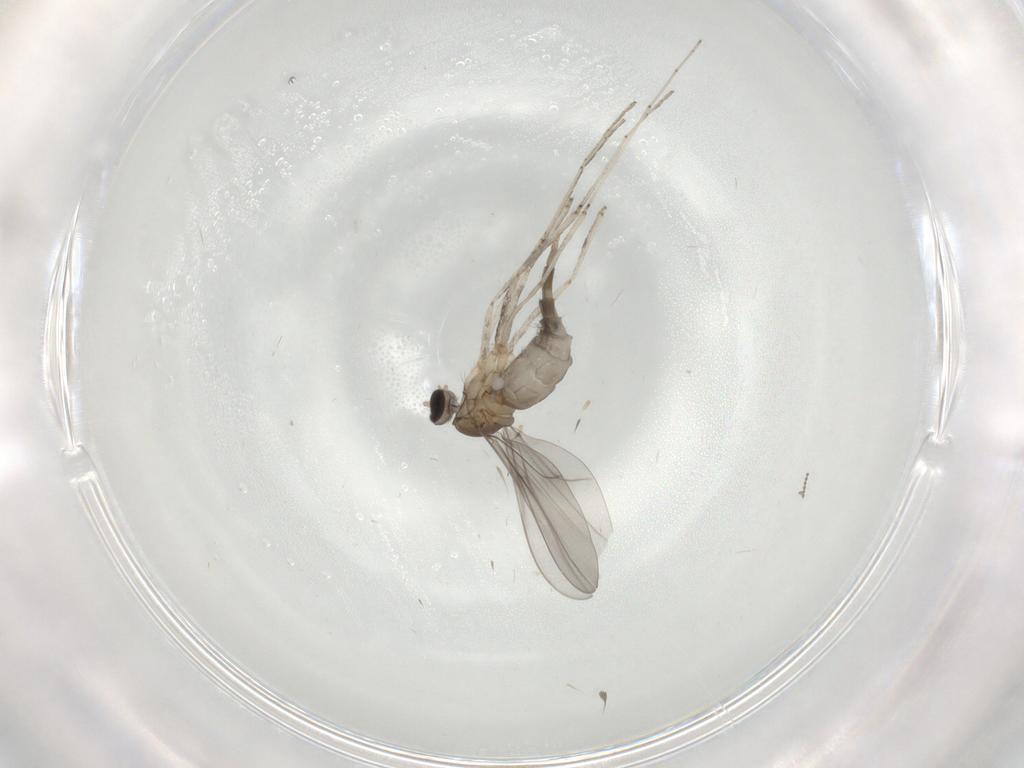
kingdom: Animalia
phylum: Arthropoda
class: Insecta
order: Diptera
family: Cecidomyiidae
